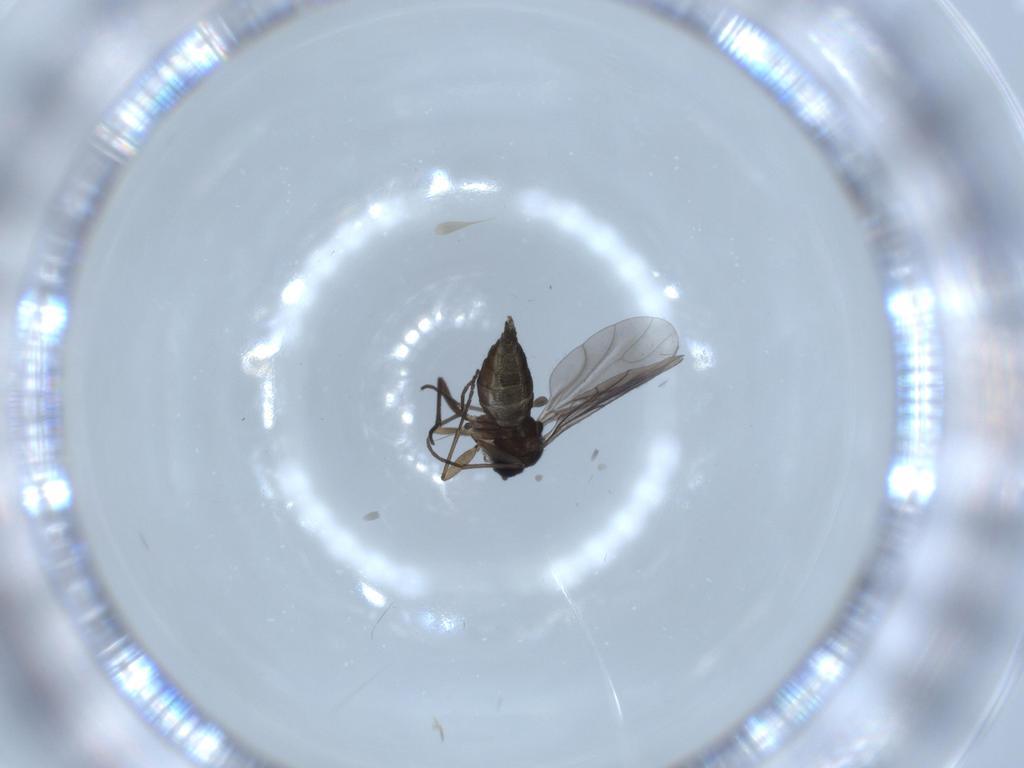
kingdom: Animalia
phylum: Arthropoda
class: Insecta
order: Diptera
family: Sciaridae
